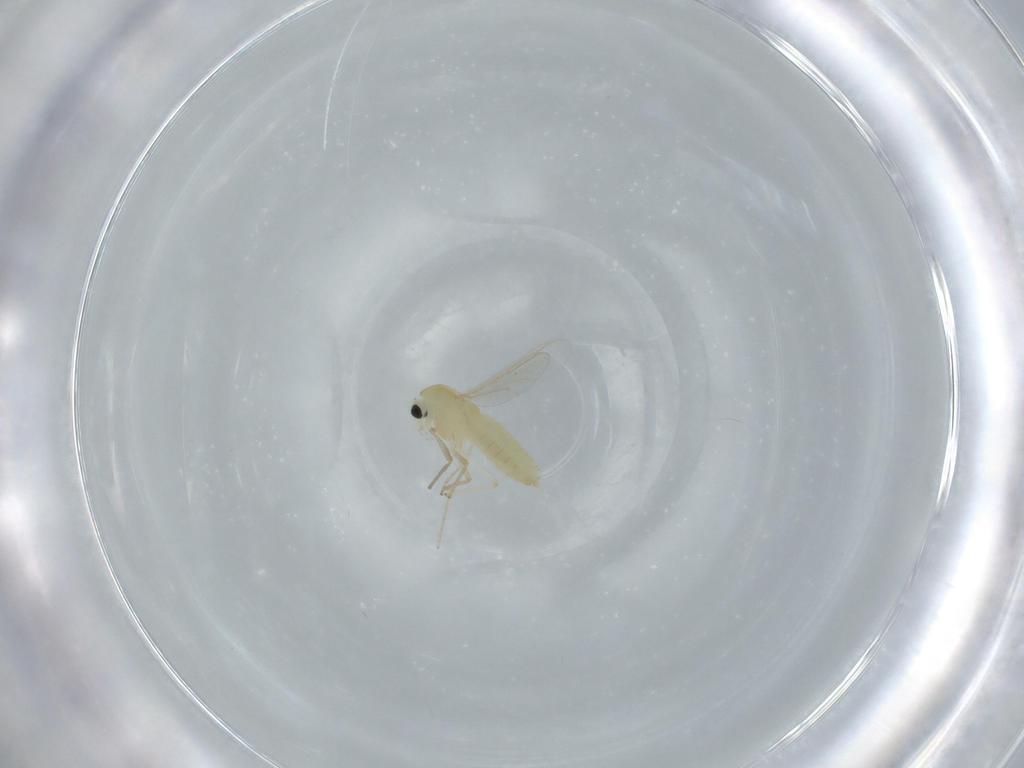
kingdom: Animalia
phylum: Arthropoda
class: Insecta
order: Diptera
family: Chironomidae
